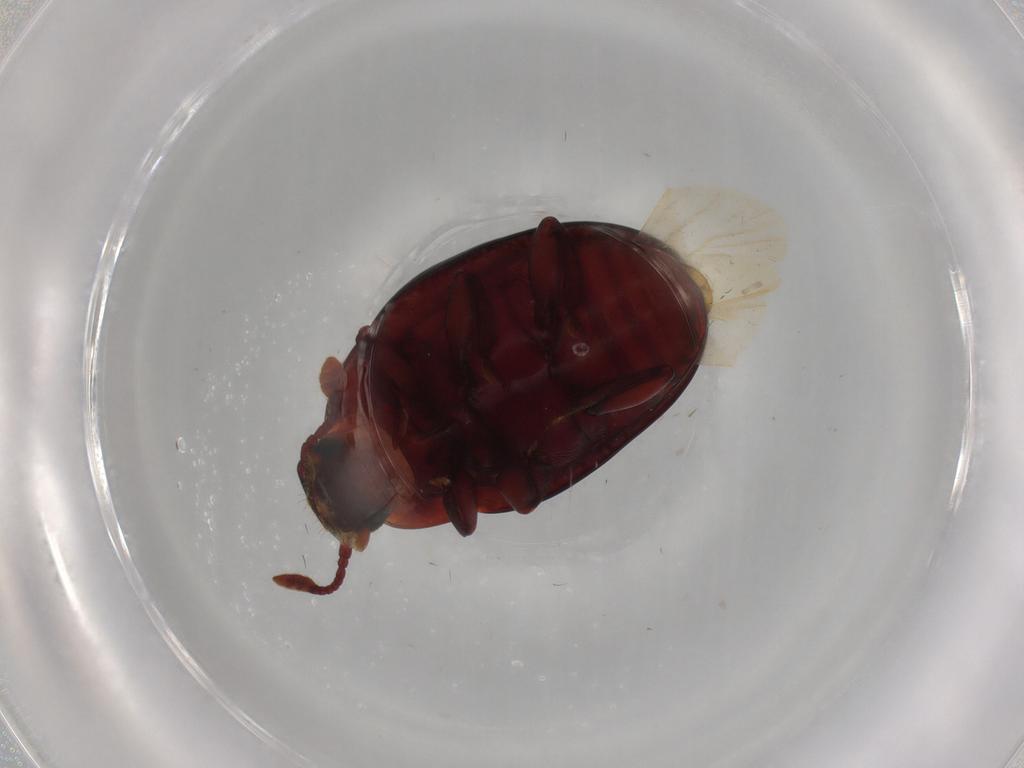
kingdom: Animalia
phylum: Arthropoda
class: Insecta
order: Coleoptera
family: Zopheridae
